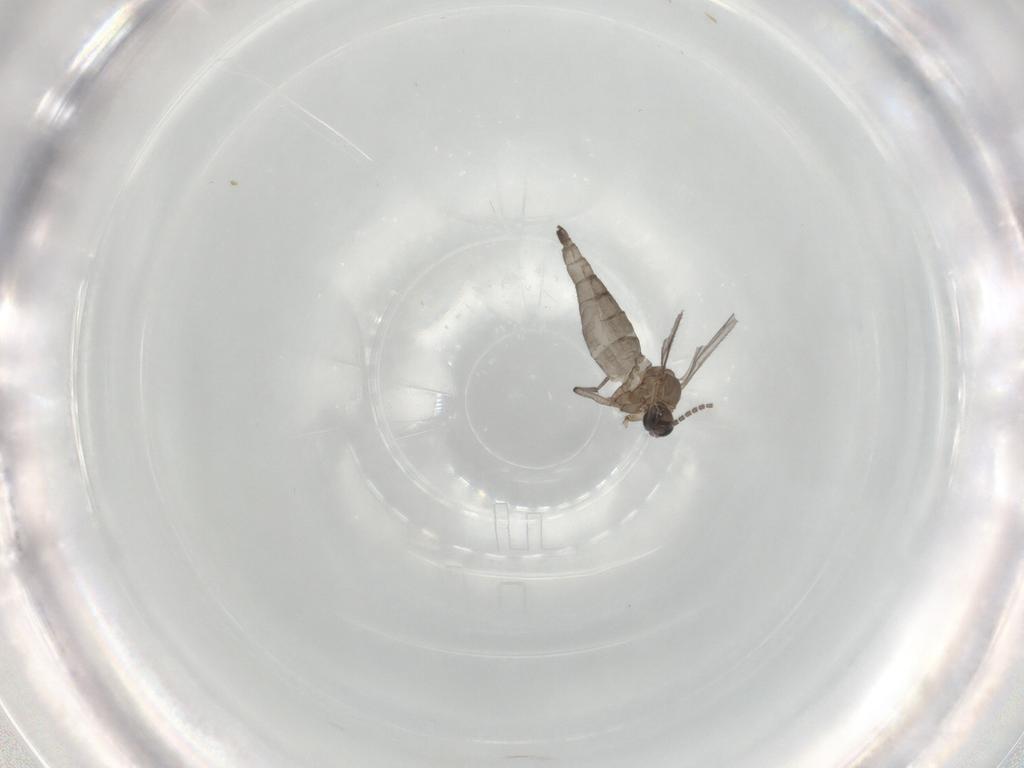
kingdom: Animalia
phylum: Arthropoda
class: Insecta
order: Diptera
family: Sciaridae
